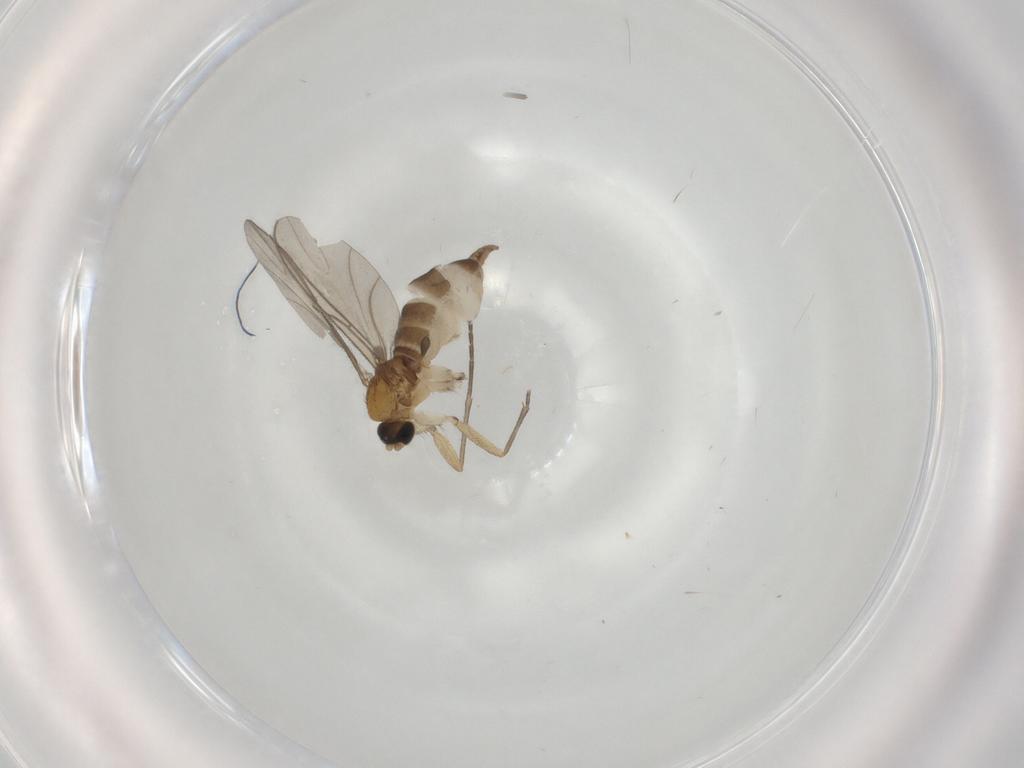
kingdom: Animalia
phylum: Arthropoda
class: Insecta
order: Diptera
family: Sciaridae
